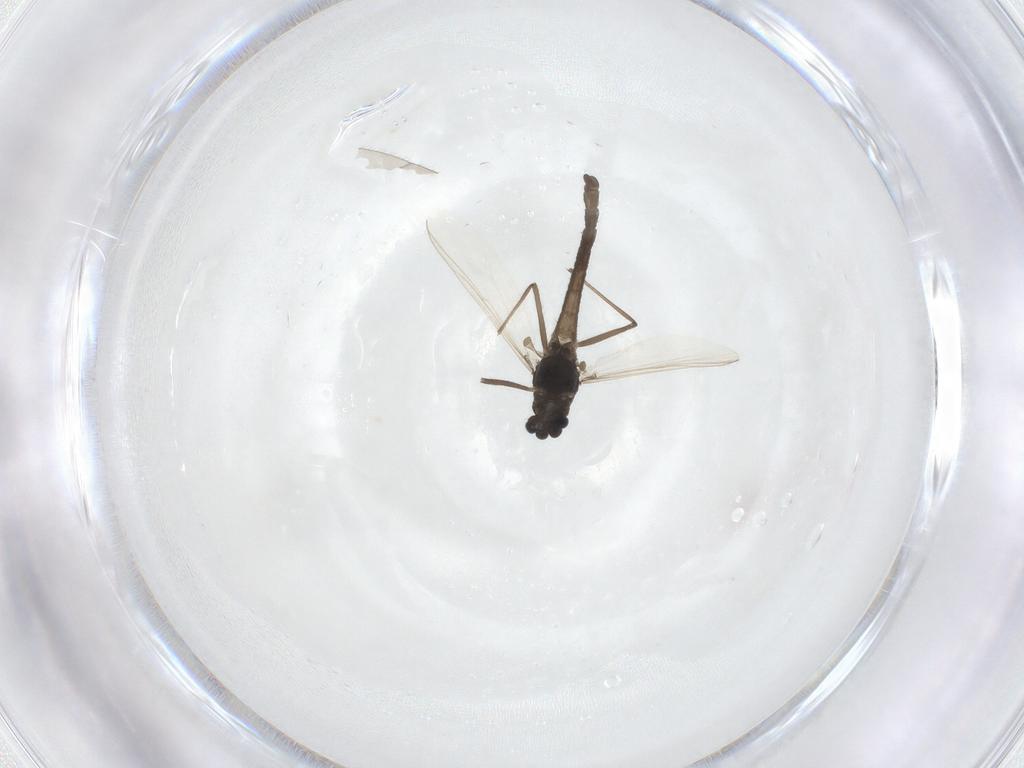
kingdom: Animalia
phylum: Arthropoda
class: Insecta
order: Diptera
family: Chironomidae
